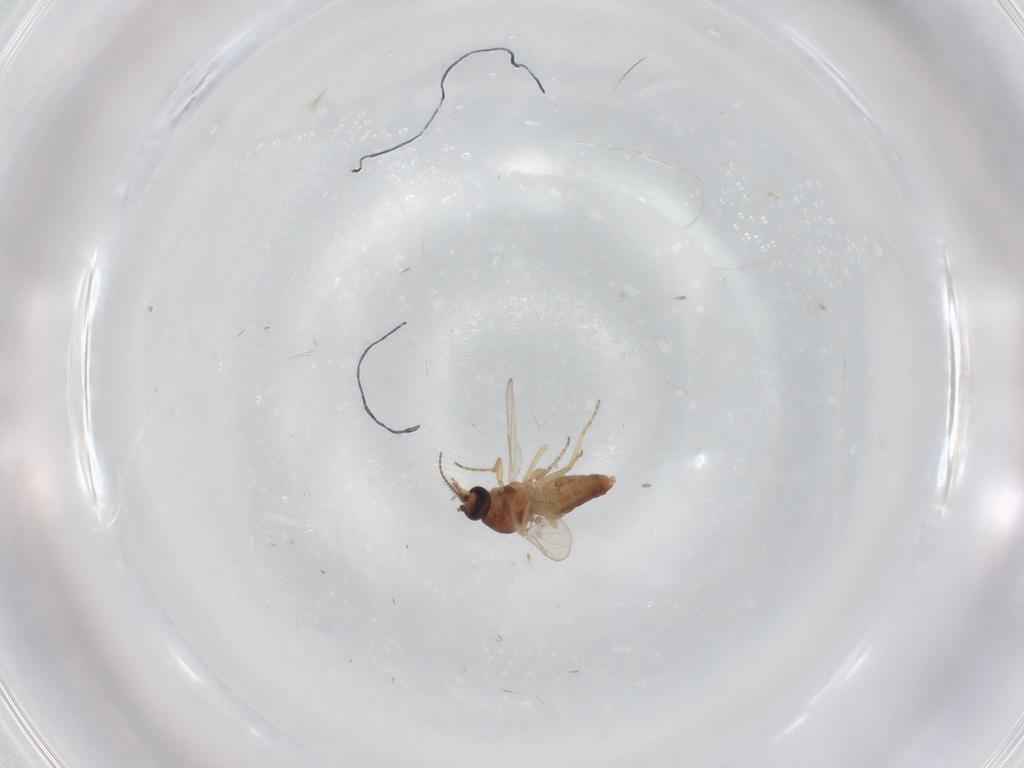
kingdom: Animalia
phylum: Arthropoda
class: Insecta
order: Diptera
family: Ceratopogonidae
